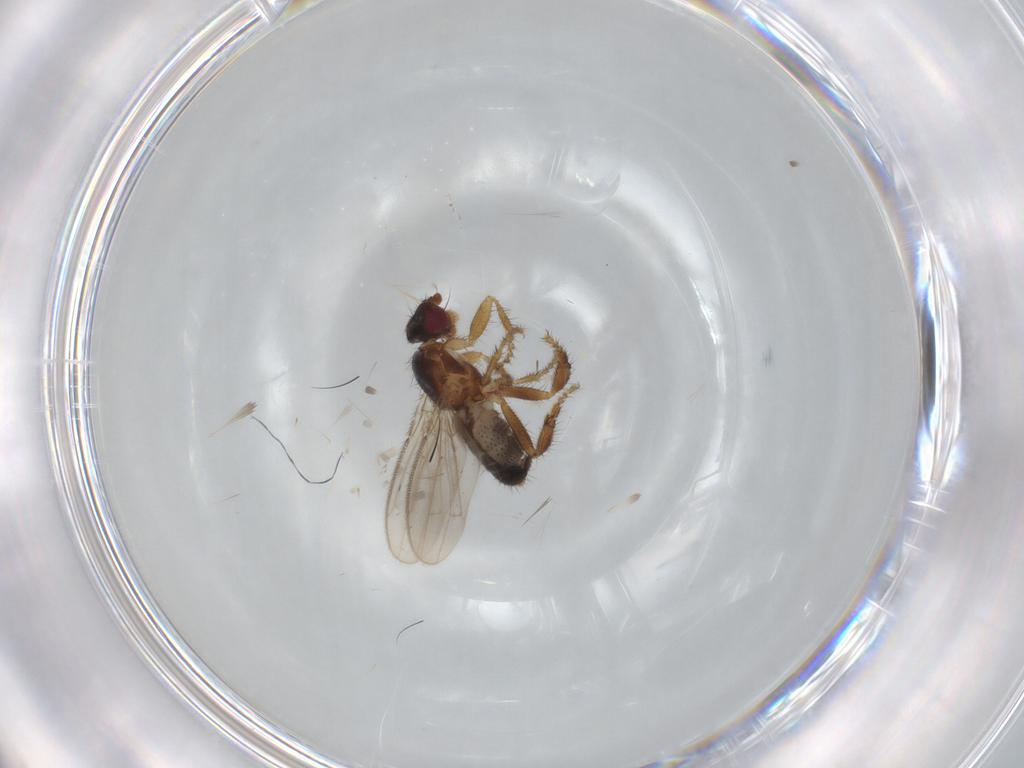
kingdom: Animalia
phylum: Arthropoda
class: Insecta
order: Diptera
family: Sphaeroceridae
